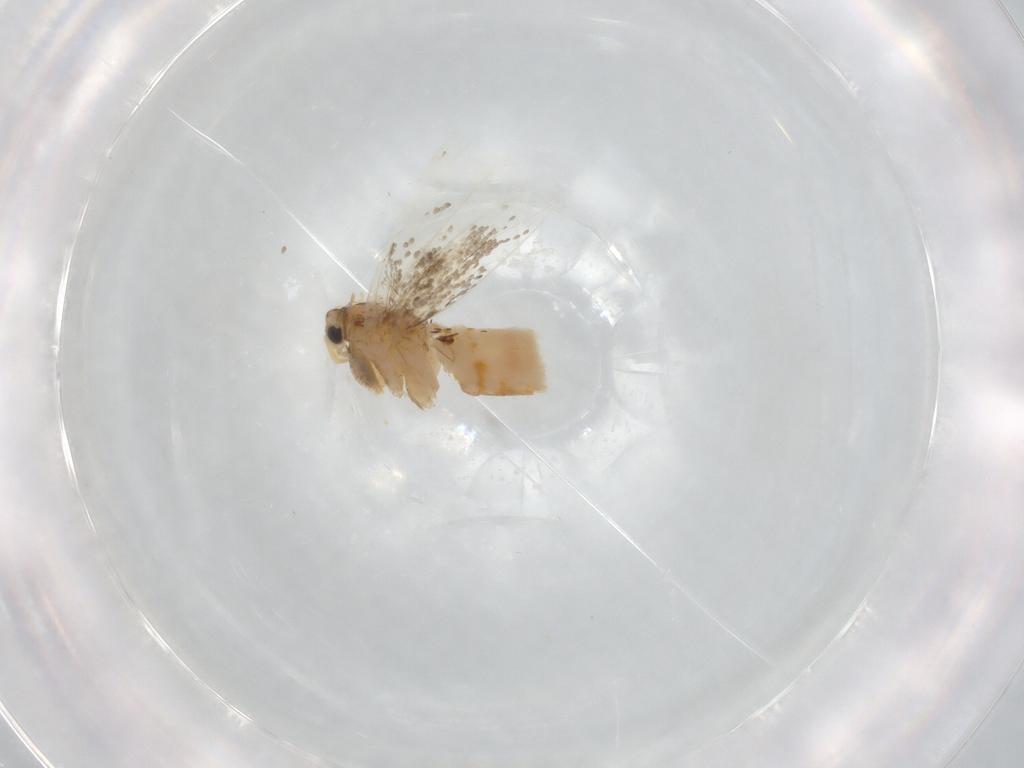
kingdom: Animalia
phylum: Arthropoda
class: Insecta
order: Lepidoptera
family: Incurvariidae
